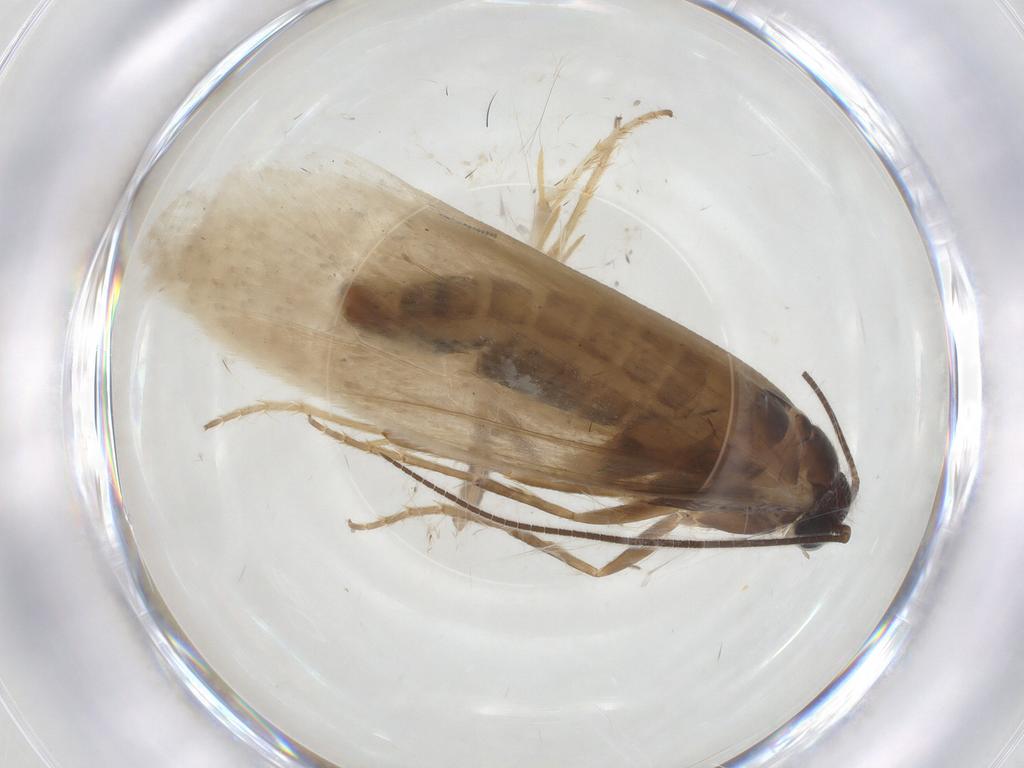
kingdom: Animalia
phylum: Arthropoda
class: Insecta
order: Lepidoptera
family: Tridentaformidae
